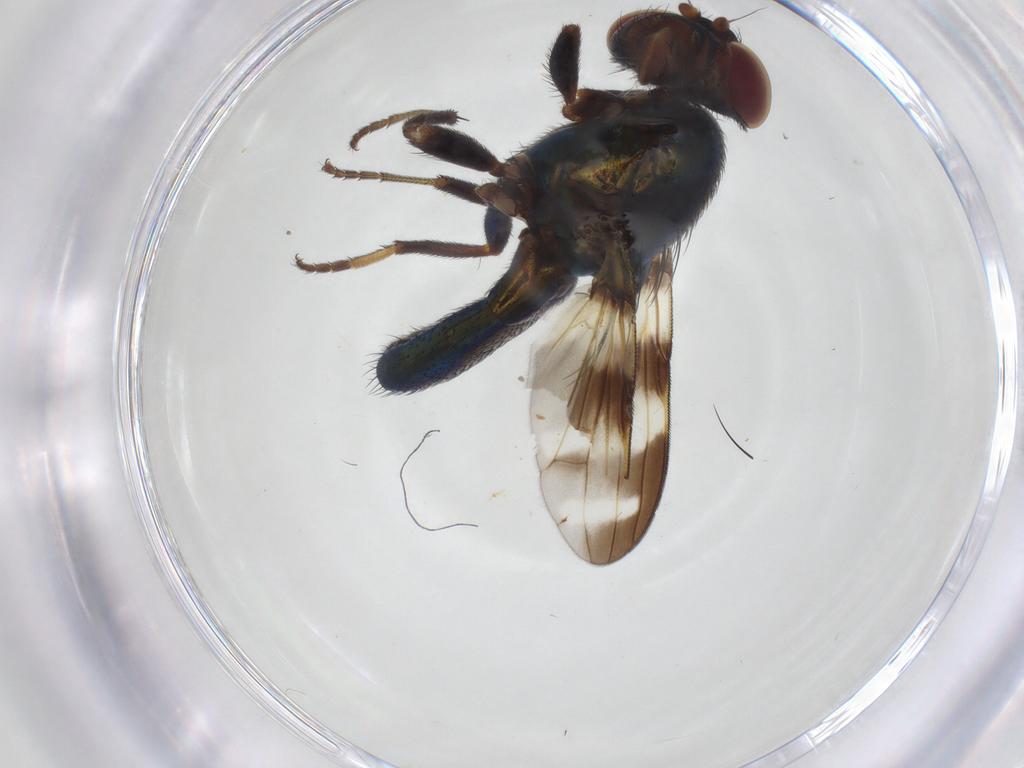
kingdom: Animalia
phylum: Arthropoda
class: Insecta
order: Diptera
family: Ulidiidae
